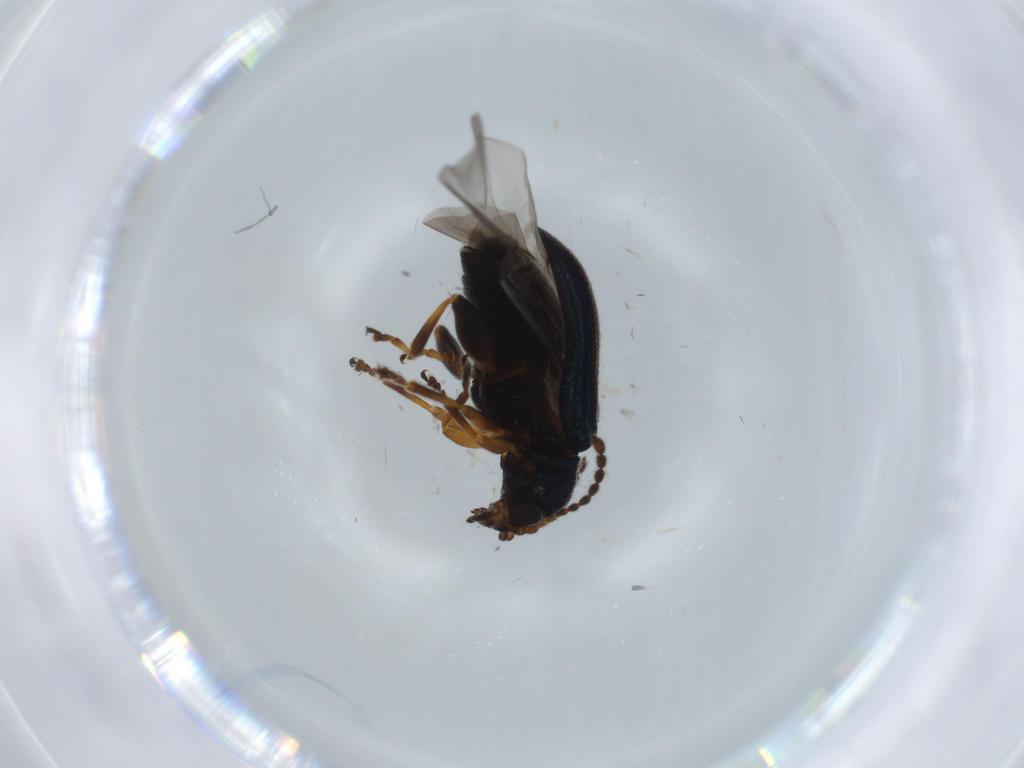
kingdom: Animalia
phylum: Arthropoda
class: Insecta
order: Coleoptera
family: Chrysomelidae
